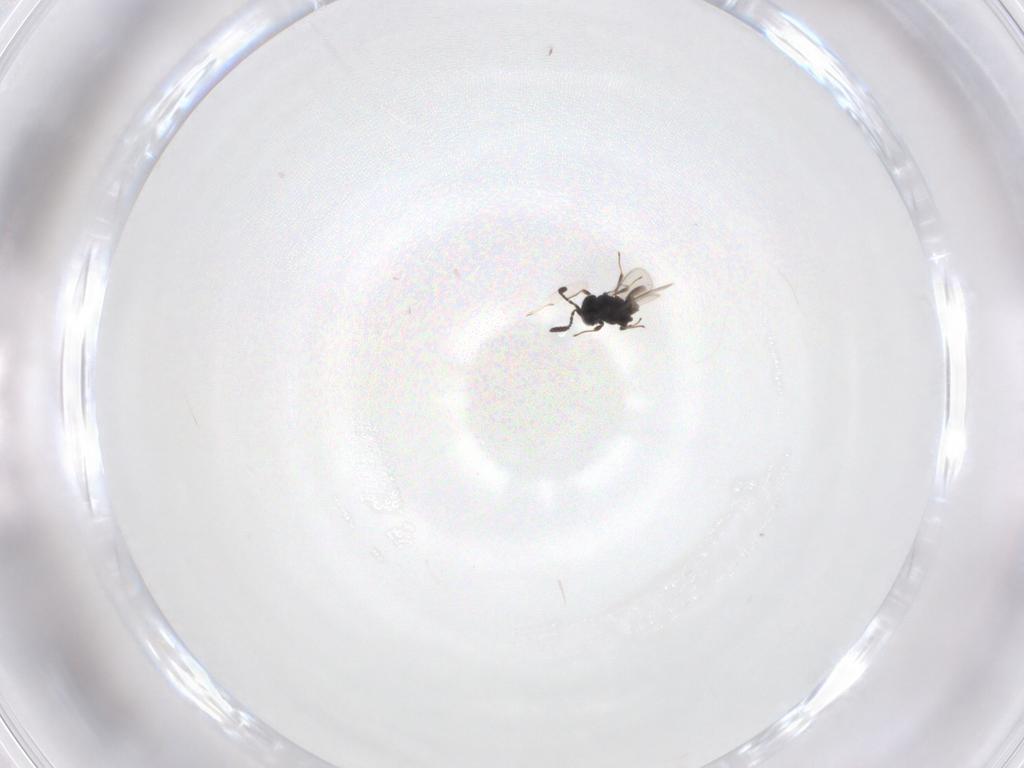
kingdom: Animalia
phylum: Arthropoda
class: Insecta
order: Hymenoptera
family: Scelionidae
